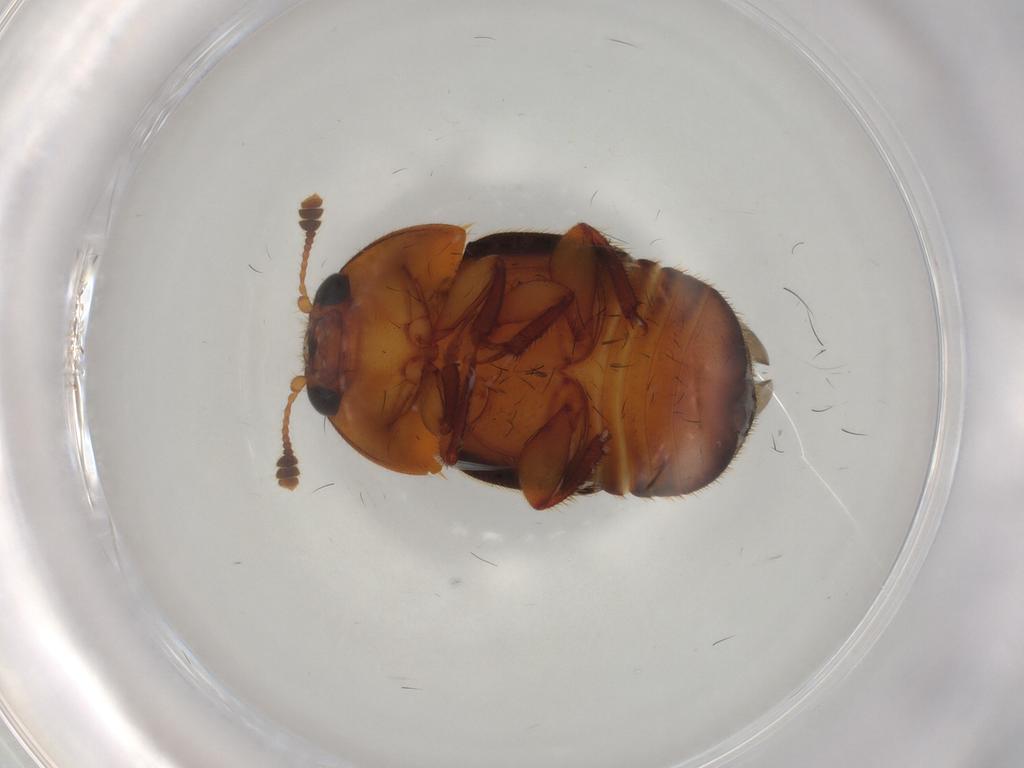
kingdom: Animalia
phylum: Arthropoda
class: Insecta
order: Coleoptera
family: Nitidulidae
